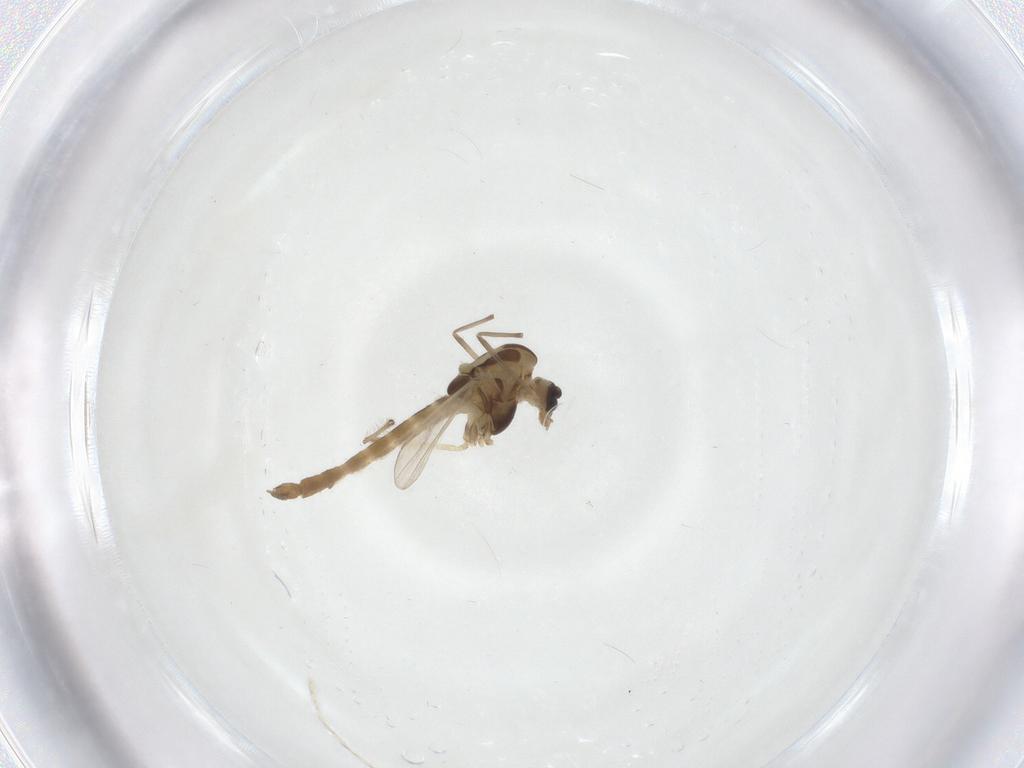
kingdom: Animalia
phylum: Arthropoda
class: Insecta
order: Diptera
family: Chironomidae
